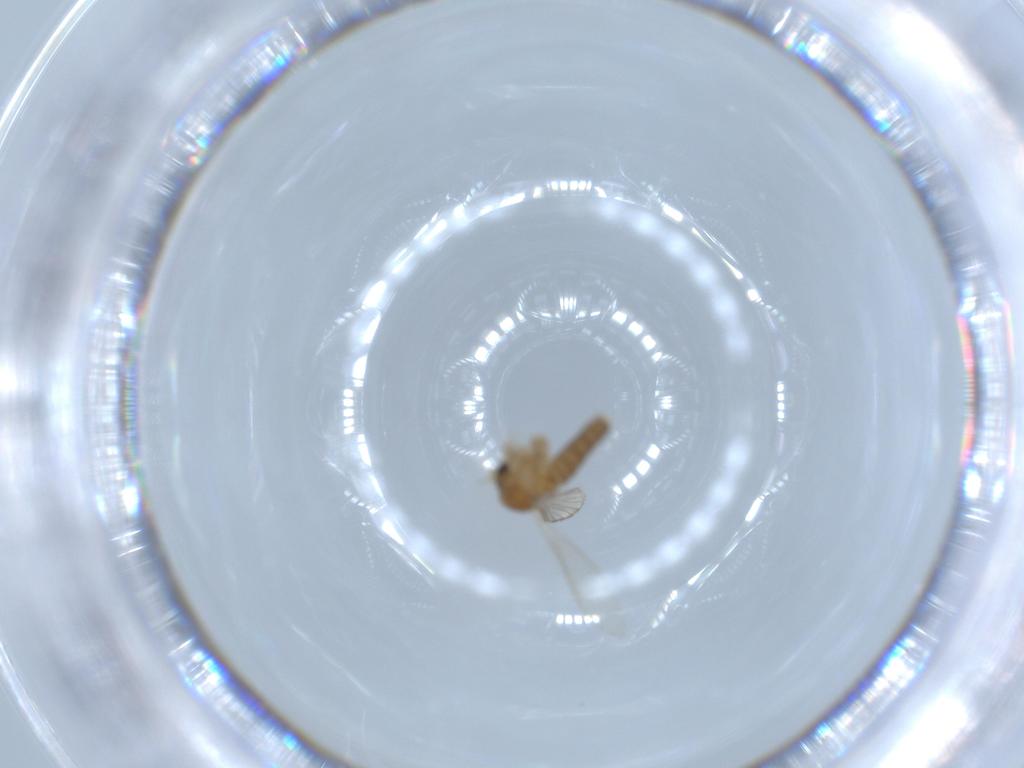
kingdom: Animalia
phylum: Arthropoda
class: Insecta
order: Diptera
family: Psychodidae
